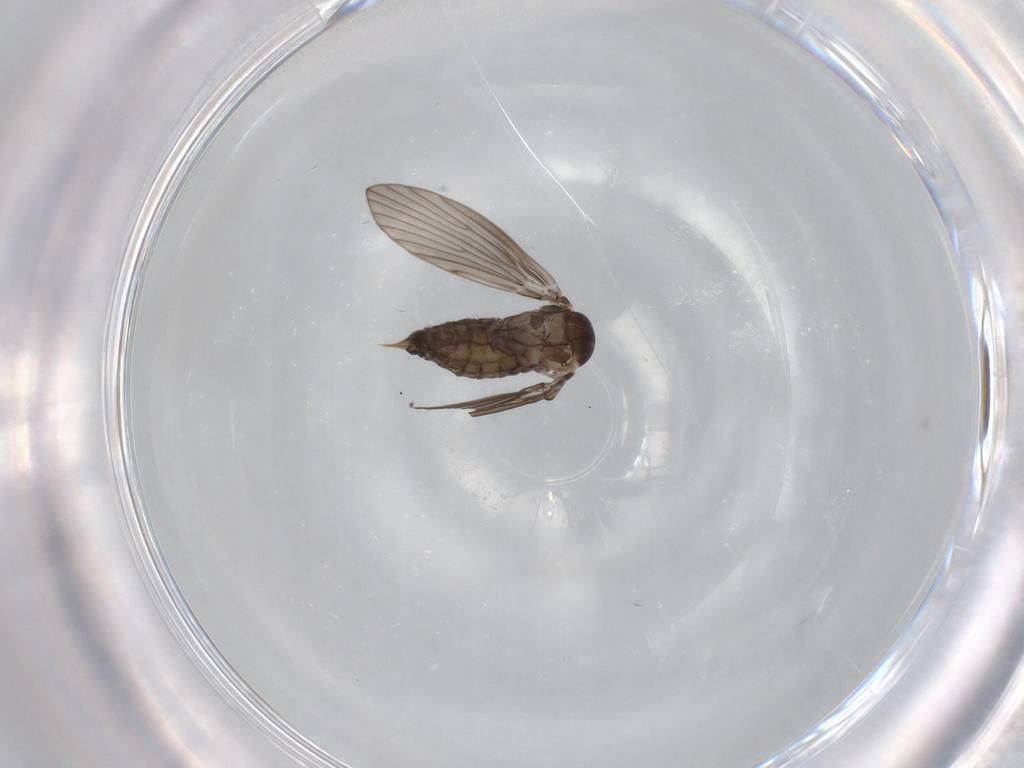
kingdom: Animalia
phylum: Arthropoda
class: Insecta
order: Diptera
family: Psychodidae
